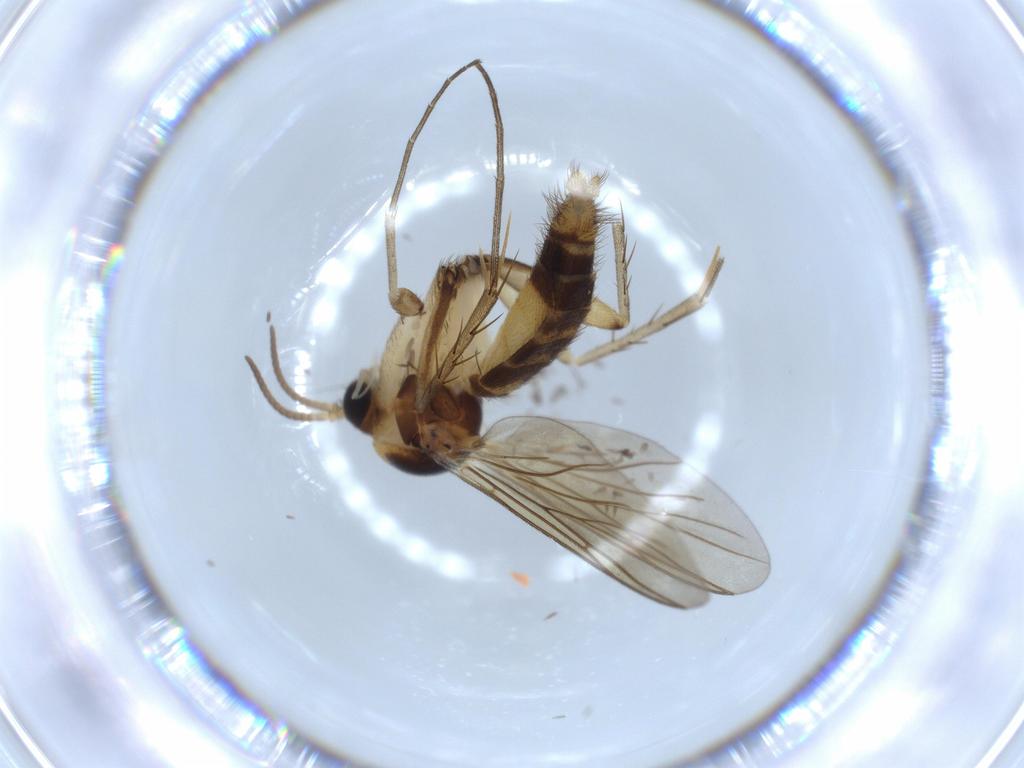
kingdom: Animalia
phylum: Arthropoda
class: Insecta
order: Diptera
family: Mycetophilidae
